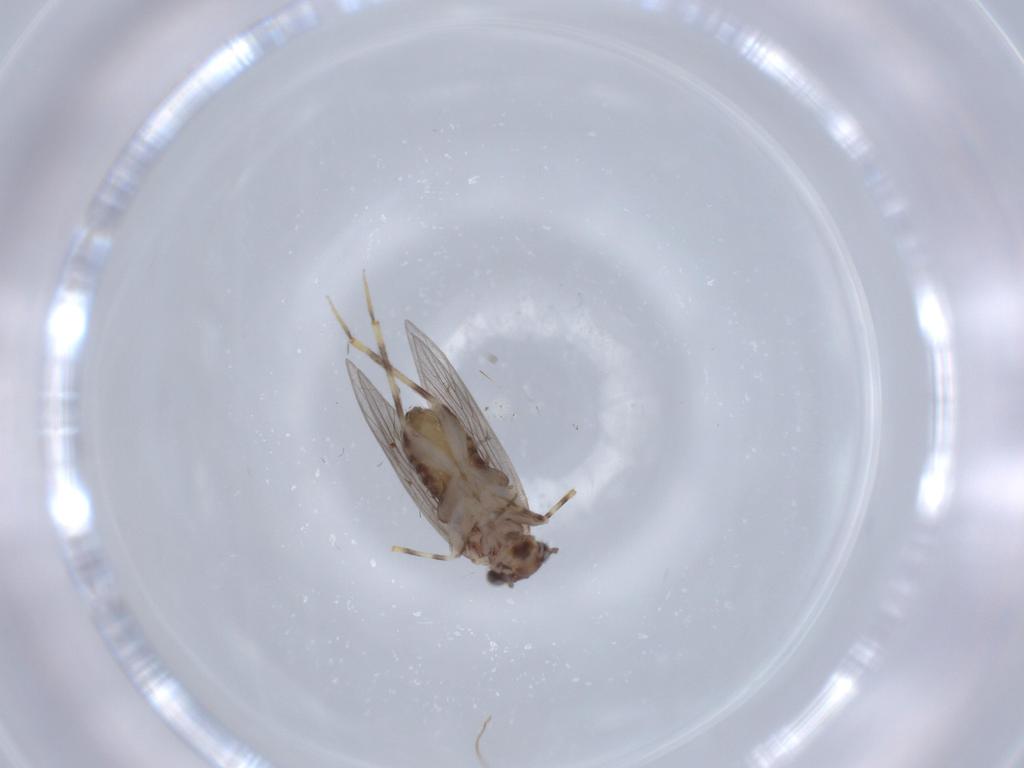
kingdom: Animalia
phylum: Arthropoda
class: Insecta
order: Psocodea
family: Lepidopsocidae
